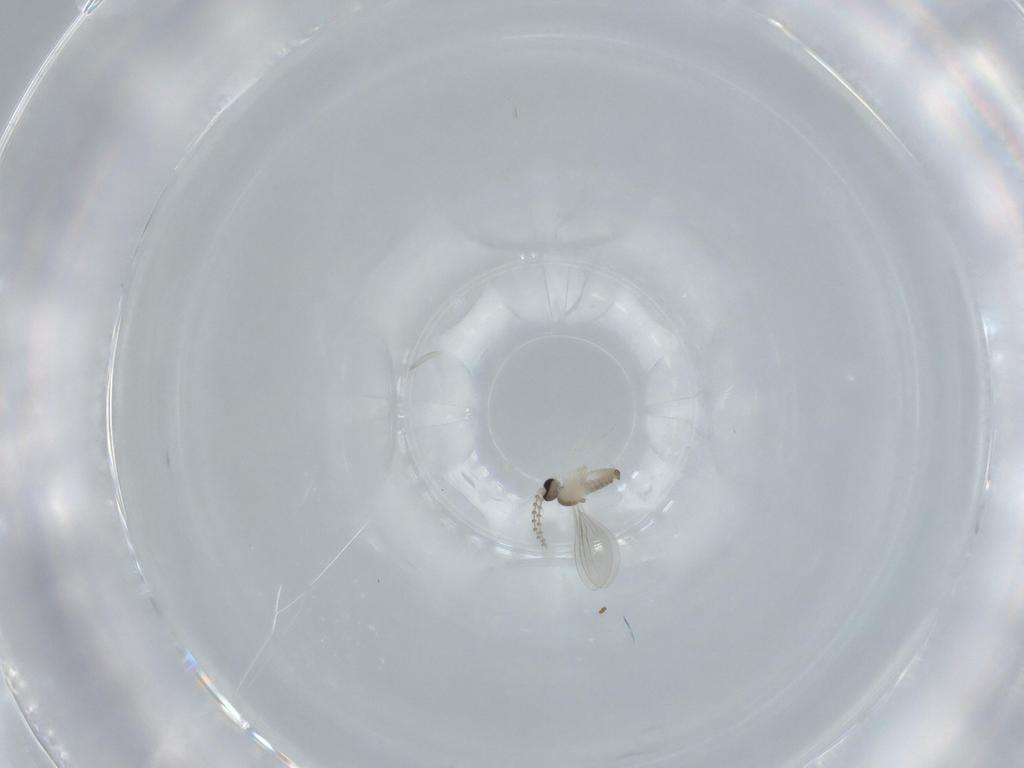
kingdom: Animalia
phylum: Arthropoda
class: Insecta
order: Diptera
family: Cecidomyiidae
